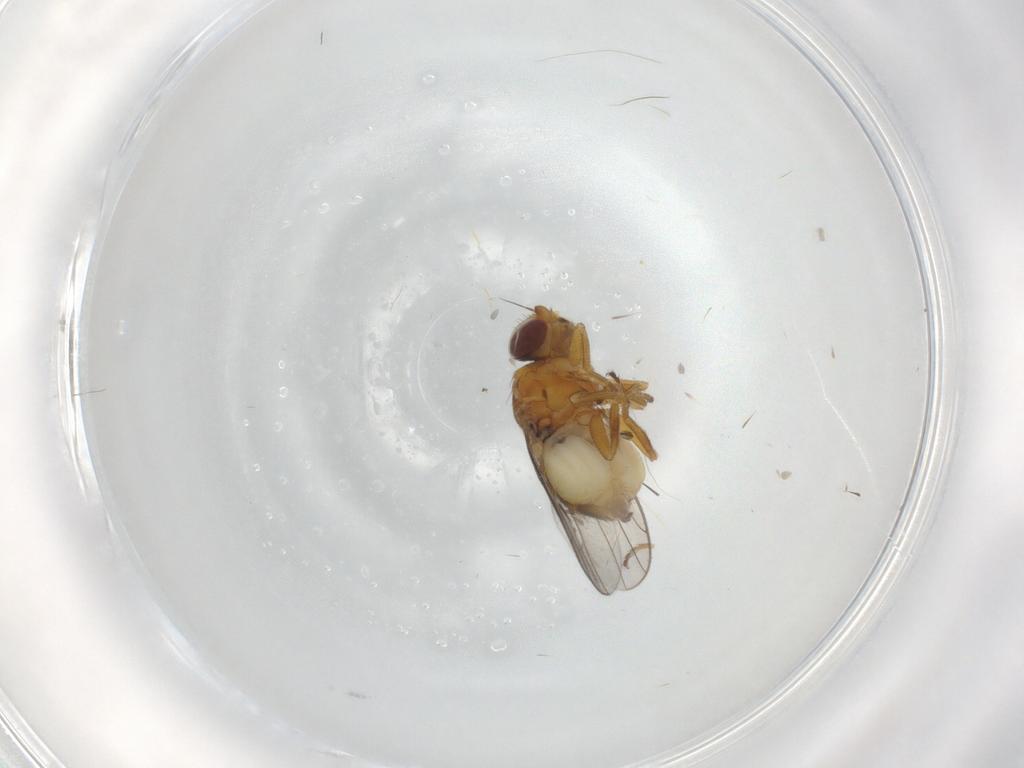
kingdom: Animalia
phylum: Arthropoda
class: Insecta
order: Diptera
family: Chloropidae
